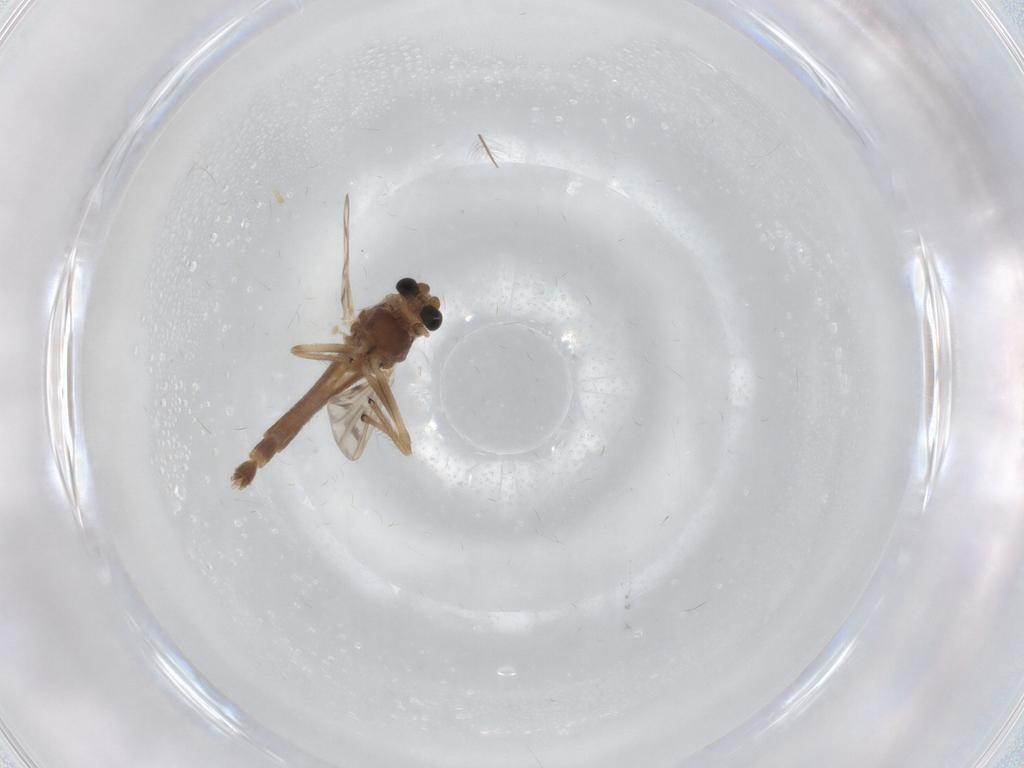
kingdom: Animalia
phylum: Arthropoda
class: Insecta
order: Diptera
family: Chironomidae
